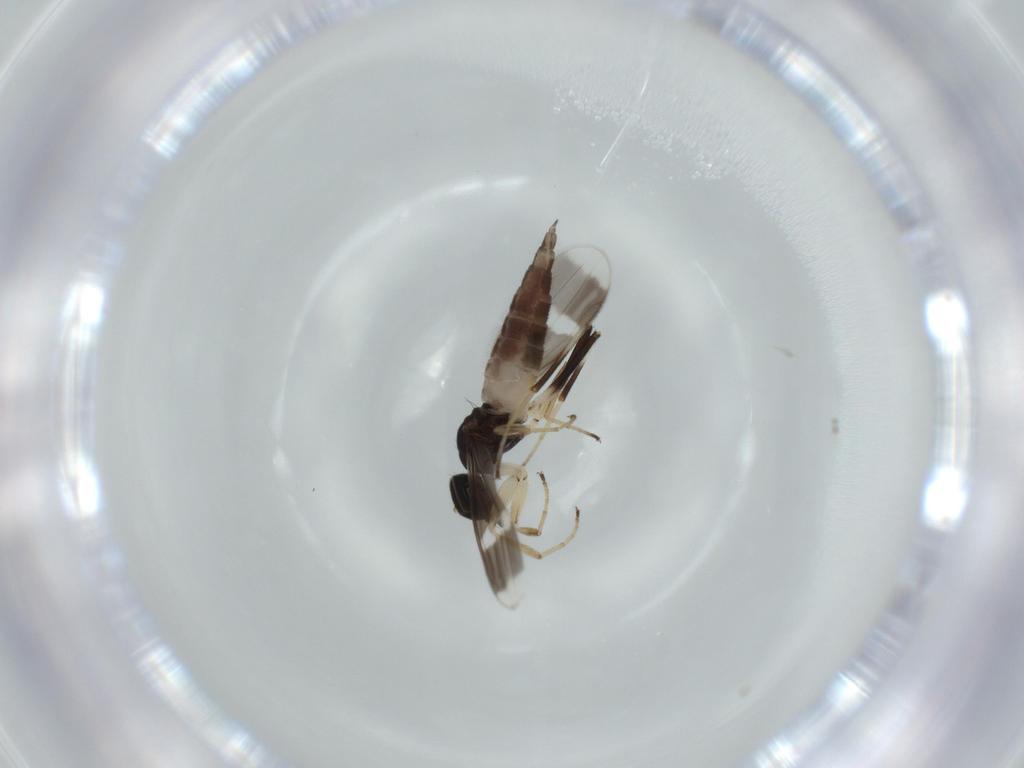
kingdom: Animalia
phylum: Arthropoda
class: Insecta
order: Diptera
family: Hybotidae
